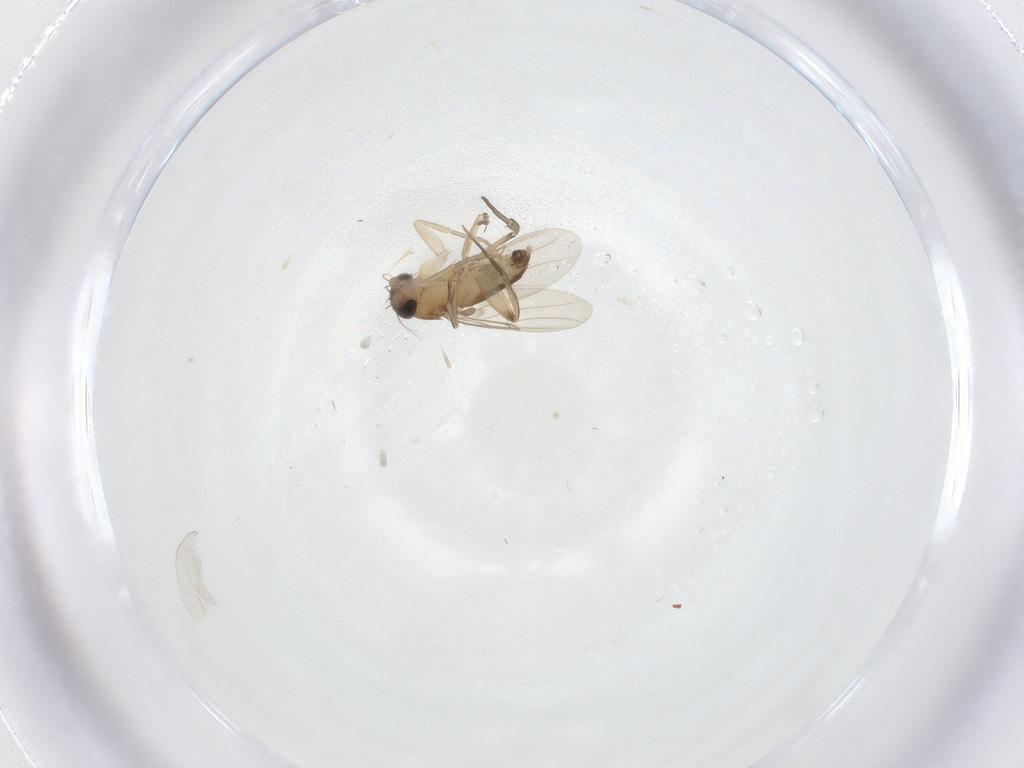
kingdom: Animalia
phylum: Arthropoda
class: Insecta
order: Diptera
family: Phoridae
